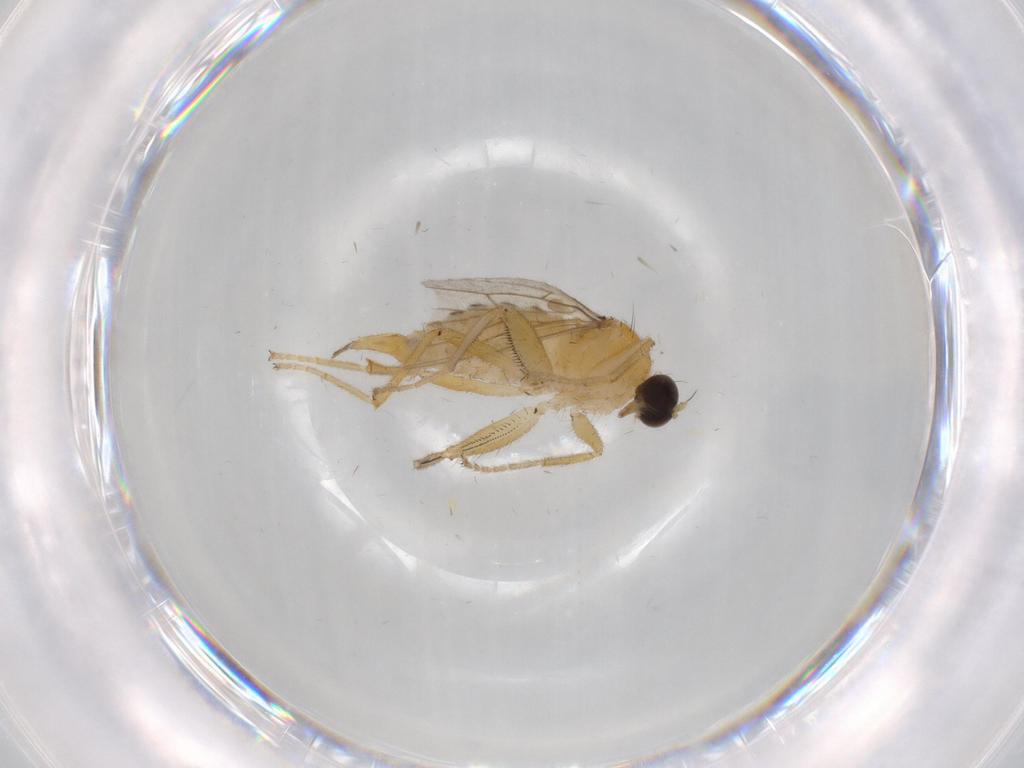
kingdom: Animalia
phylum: Arthropoda
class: Insecta
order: Diptera
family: Hybotidae
